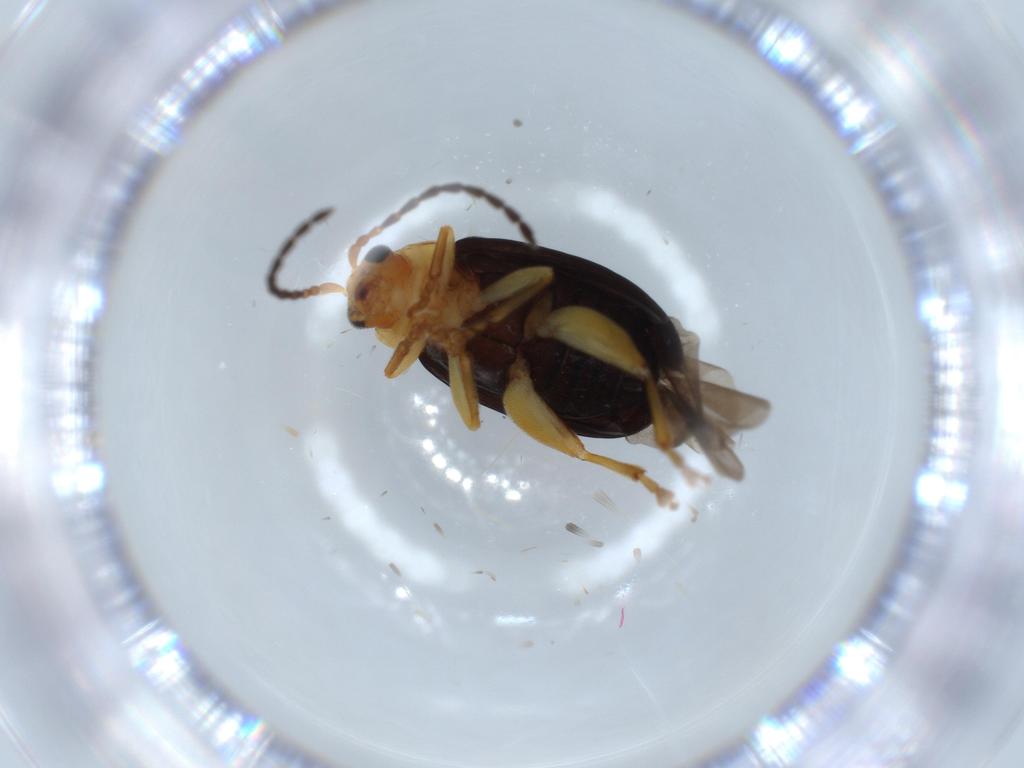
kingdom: Animalia
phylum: Arthropoda
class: Insecta
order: Coleoptera
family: Chrysomelidae
